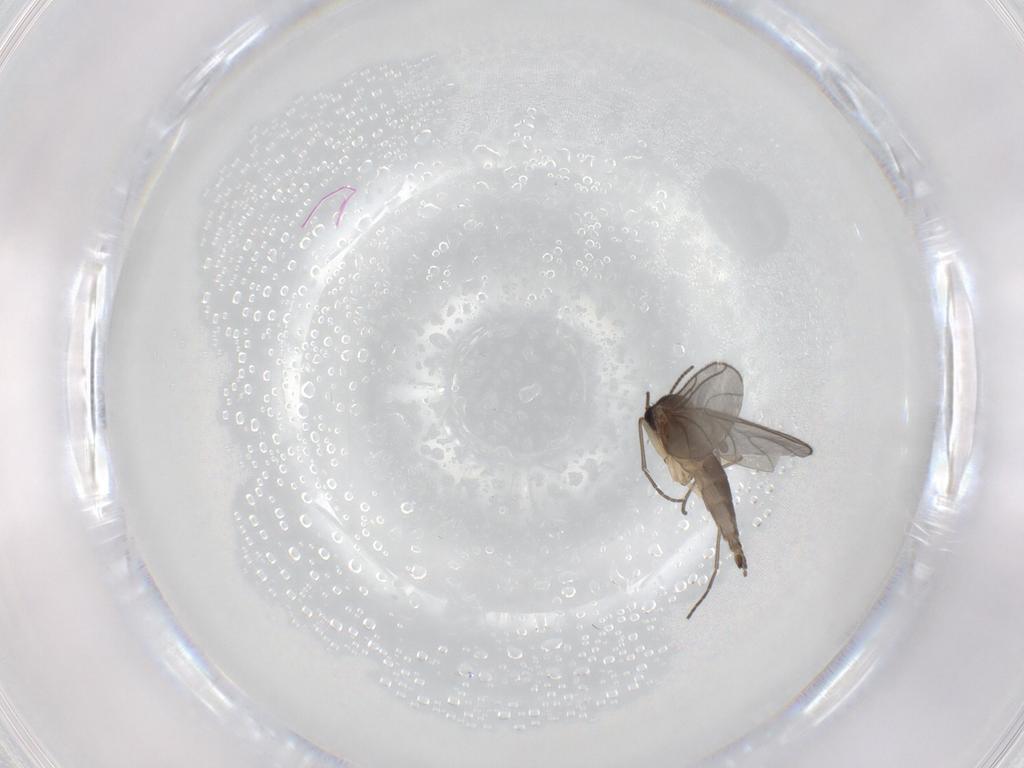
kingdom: Animalia
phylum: Arthropoda
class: Insecta
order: Diptera
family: Sciaridae
